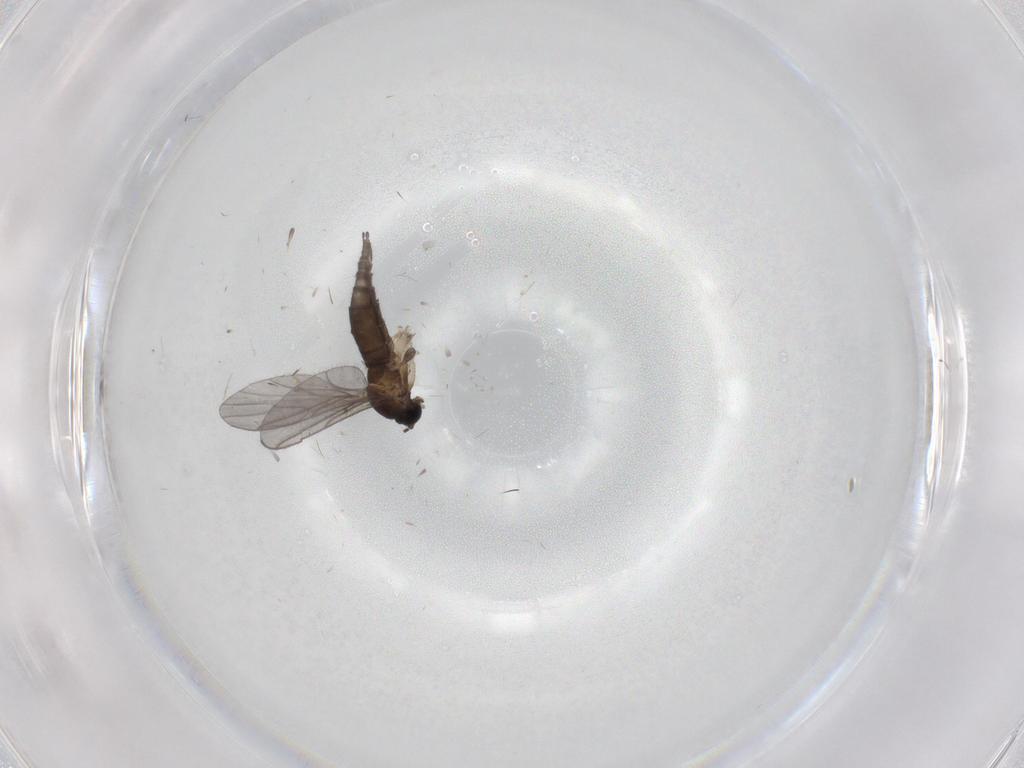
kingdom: Animalia
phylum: Arthropoda
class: Insecta
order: Diptera
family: Sciaridae
